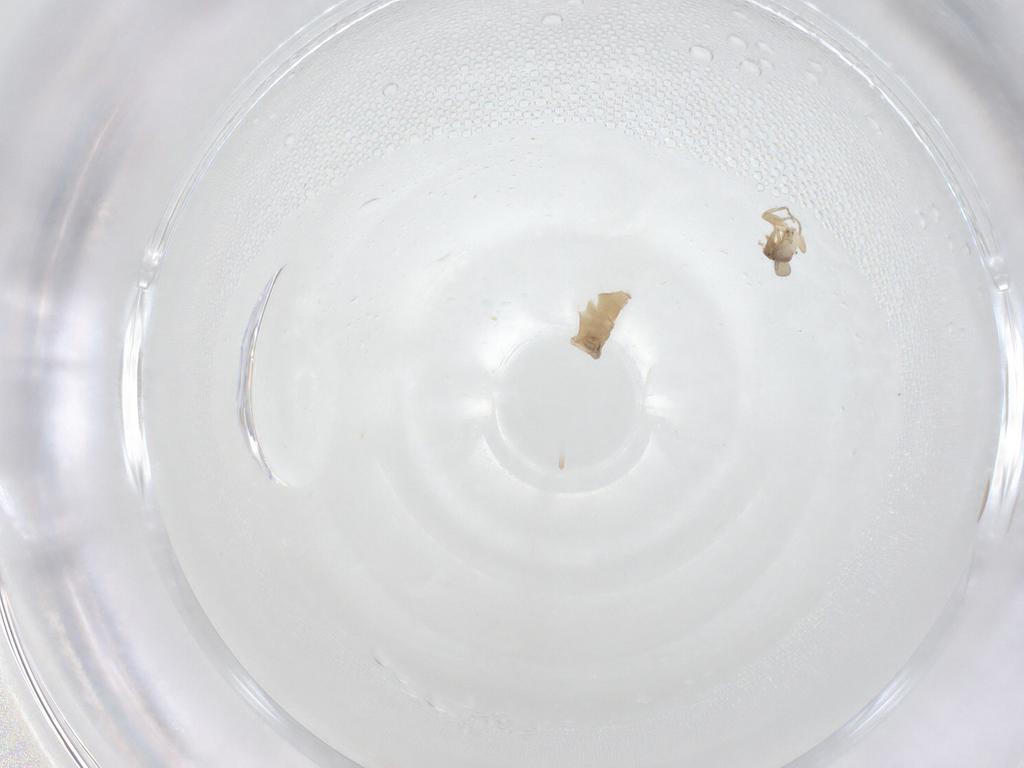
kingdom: Animalia
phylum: Arthropoda
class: Insecta
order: Diptera
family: Phoridae
